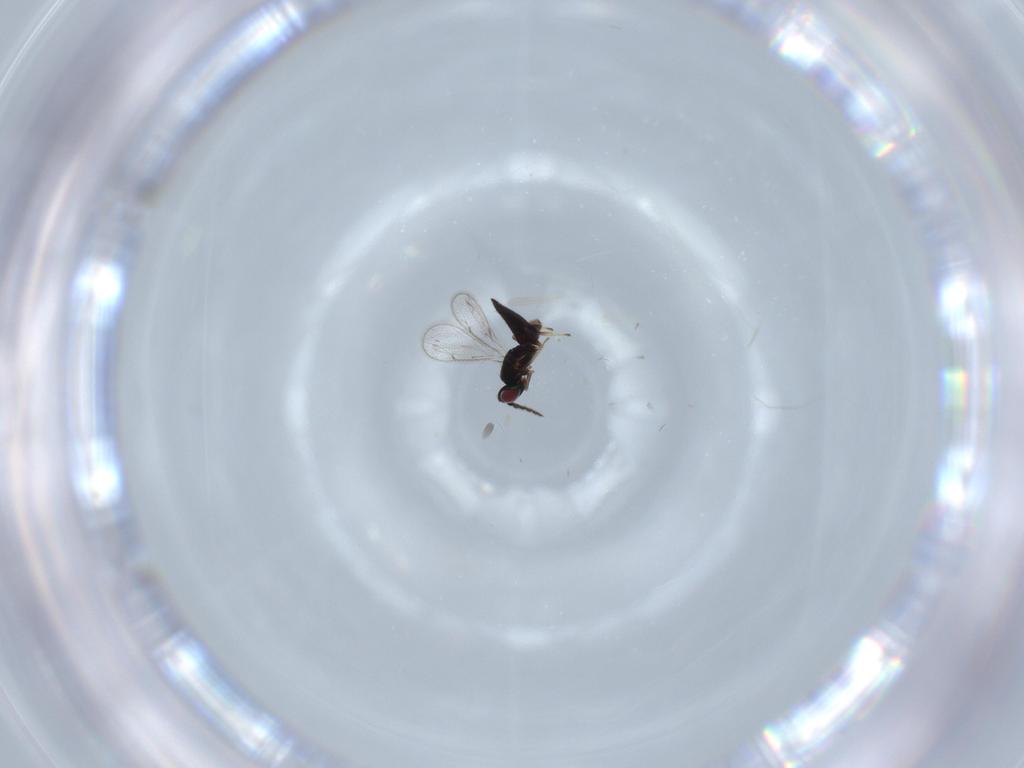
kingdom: Animalia
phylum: Arthropoda
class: Insecta
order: Hymenoptera
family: Eulophidae
